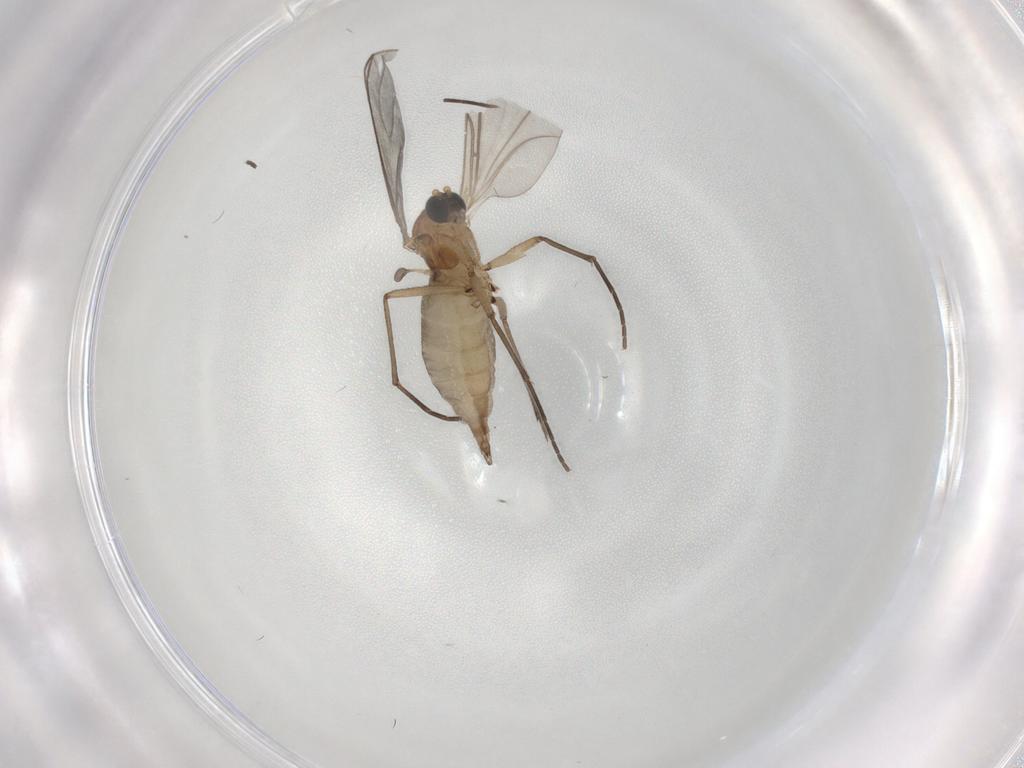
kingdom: Animalia
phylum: Arthropoda
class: Insecta
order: Diptera
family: Sciaridae
